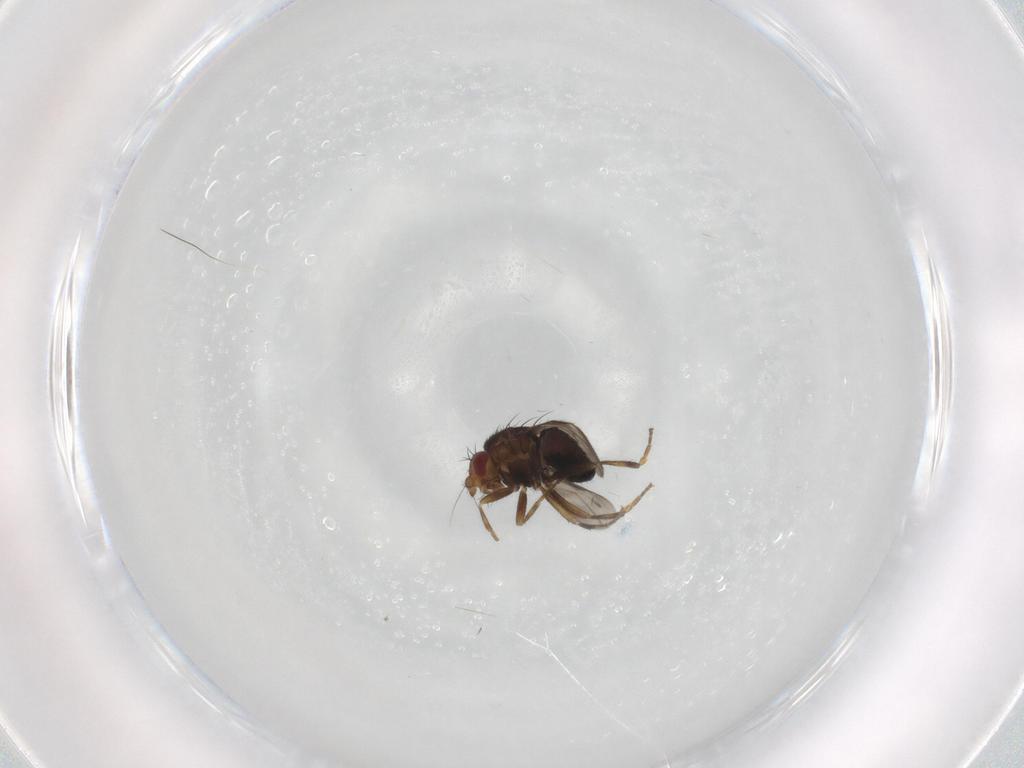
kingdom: Animalia
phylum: Arthropoda
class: Insecta
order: Diptera
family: Sphaeroceridae
